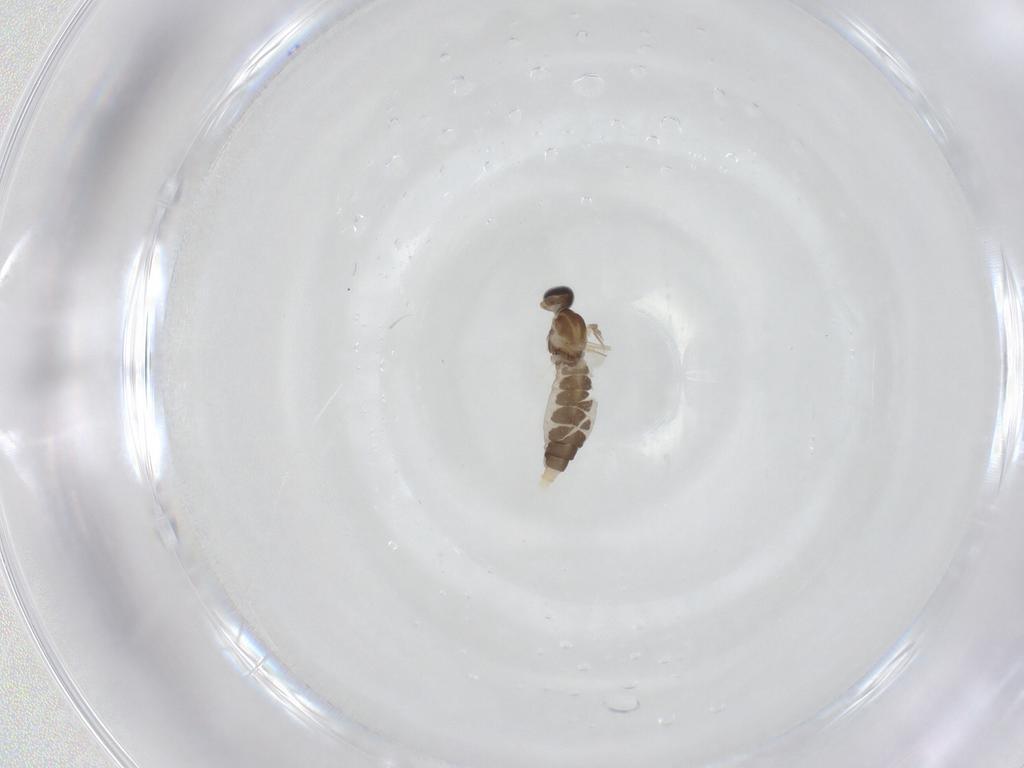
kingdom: Animalia
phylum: Arthropoda
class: Insecta
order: Diptera
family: Cecidomyiidae
